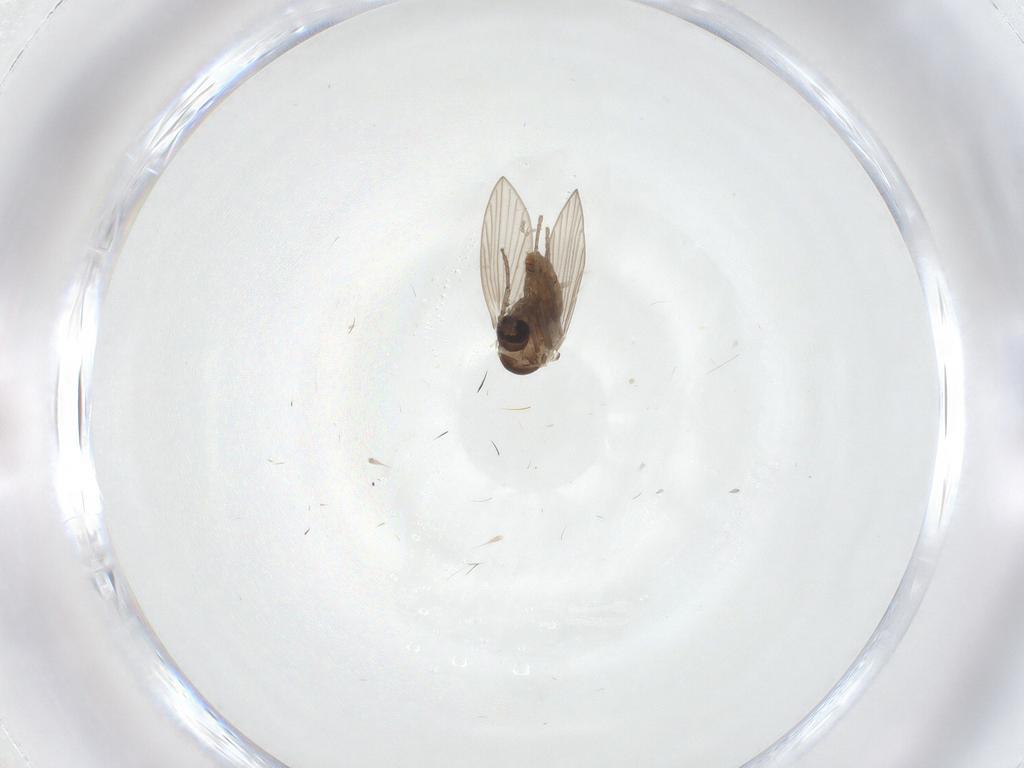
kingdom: Animalia
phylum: Arthropoda
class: Insecta
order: Diptera
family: Psychodidae
